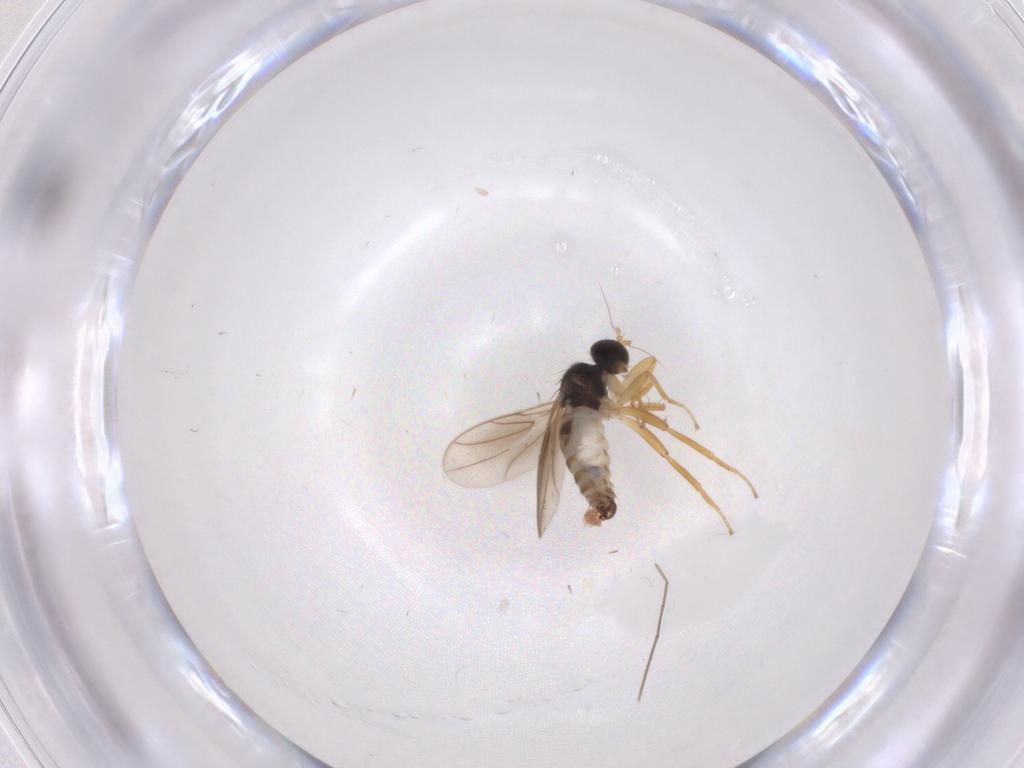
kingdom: Animalia
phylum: Arthropoda
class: Insecta
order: Diptera
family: Hybotidae
